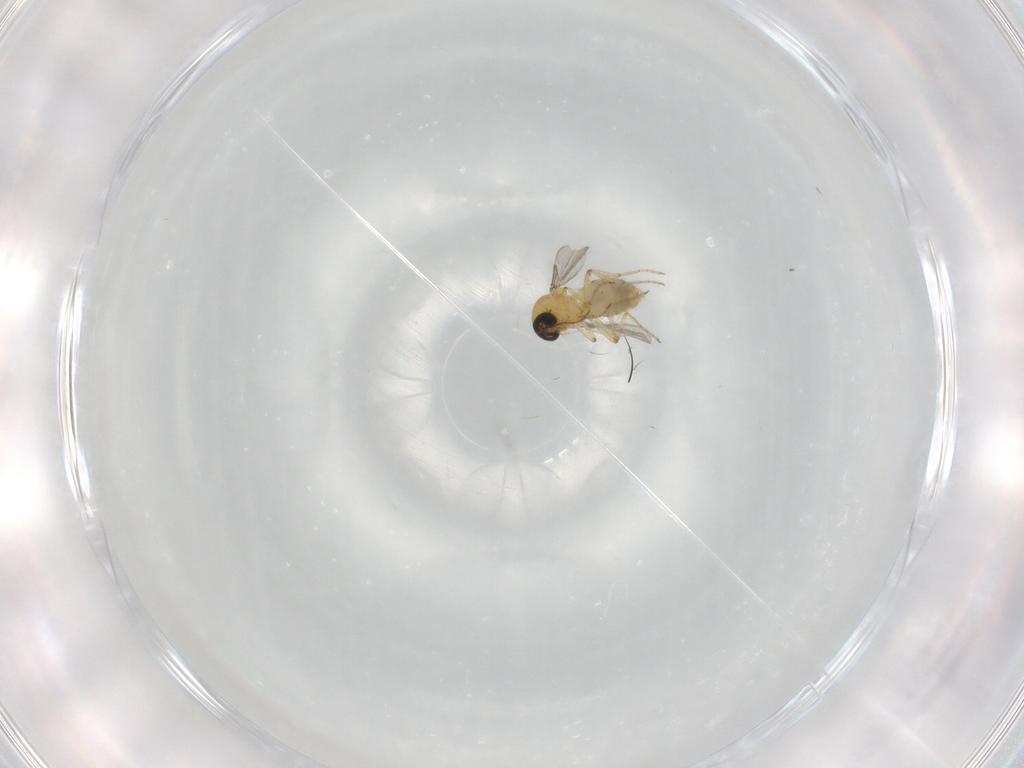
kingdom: Animalia
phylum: Arthropoda
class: Insecta
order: Diptera
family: Ceratopogonidae
